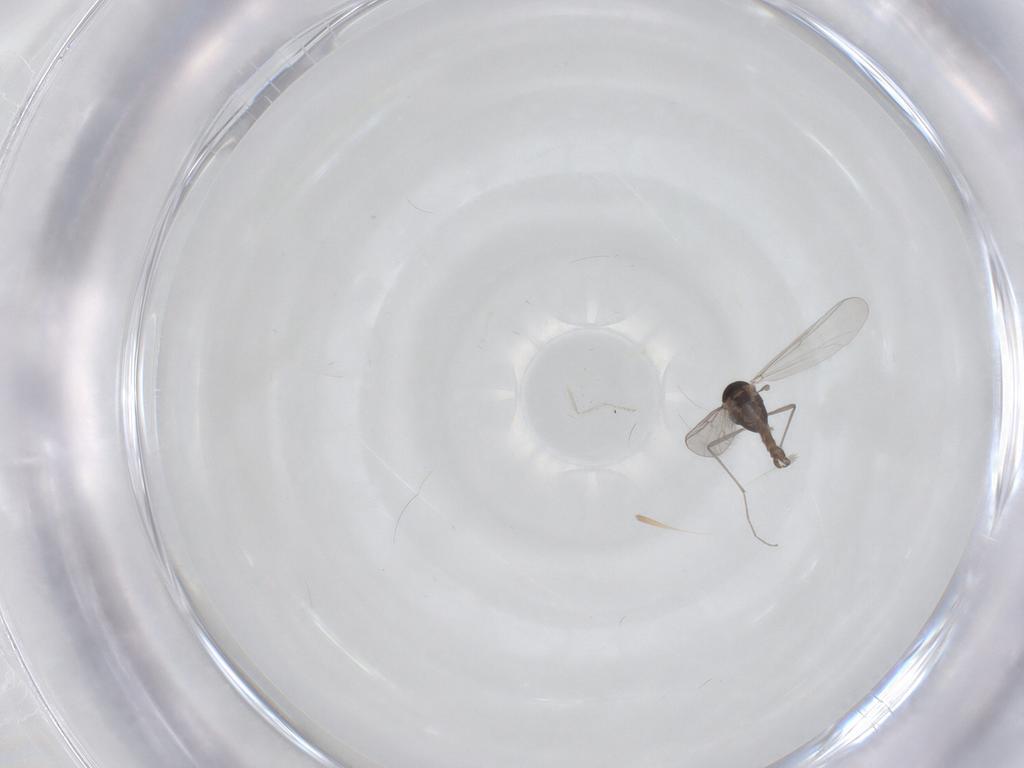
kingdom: Animalia
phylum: Arthropoda
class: Insecta
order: Diptera
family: Chironomidae
